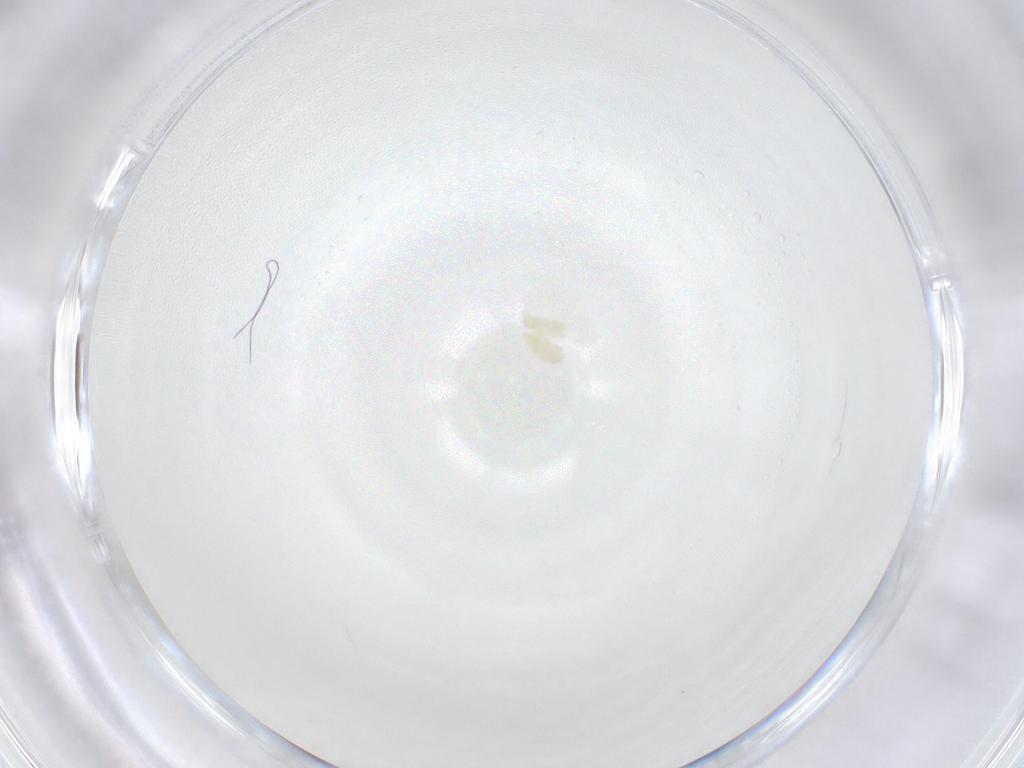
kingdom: Animalia
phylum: Arthropoda
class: Arachnida
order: Trombidiformes
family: Eupodidae
